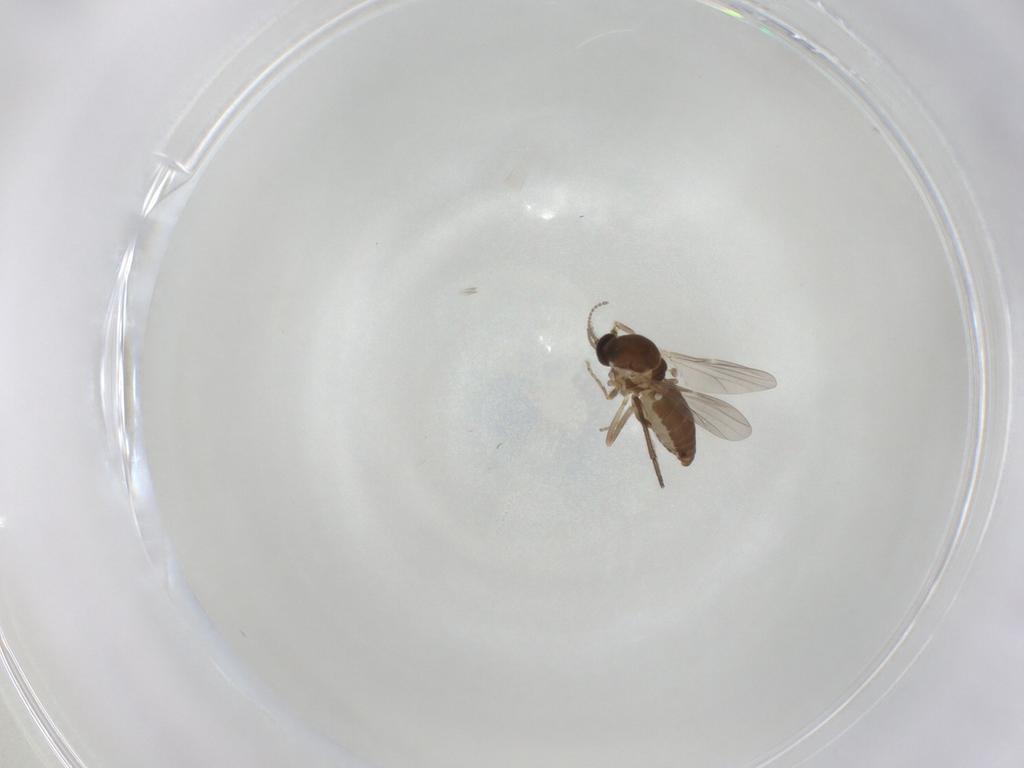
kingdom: Animalia
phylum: Arthropoda
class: Insecta
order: Diptera
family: Ceratopogonidae
